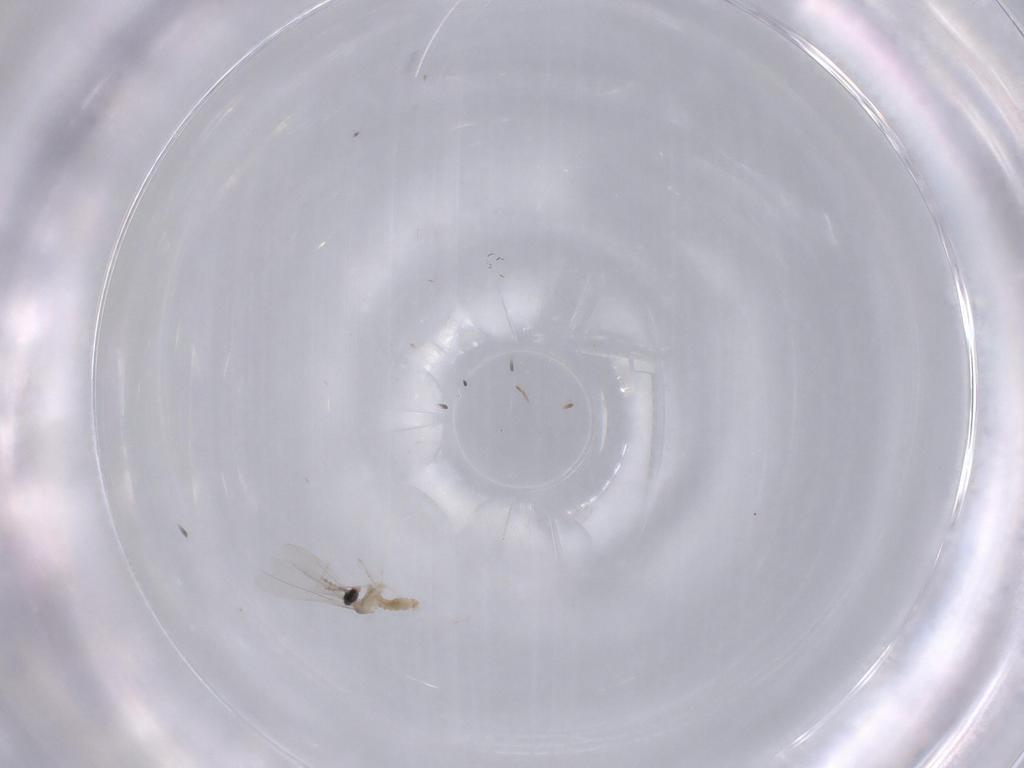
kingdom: Animalia
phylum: Arthropoda
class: Insecta
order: Diptera
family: Cecidomyiidae
